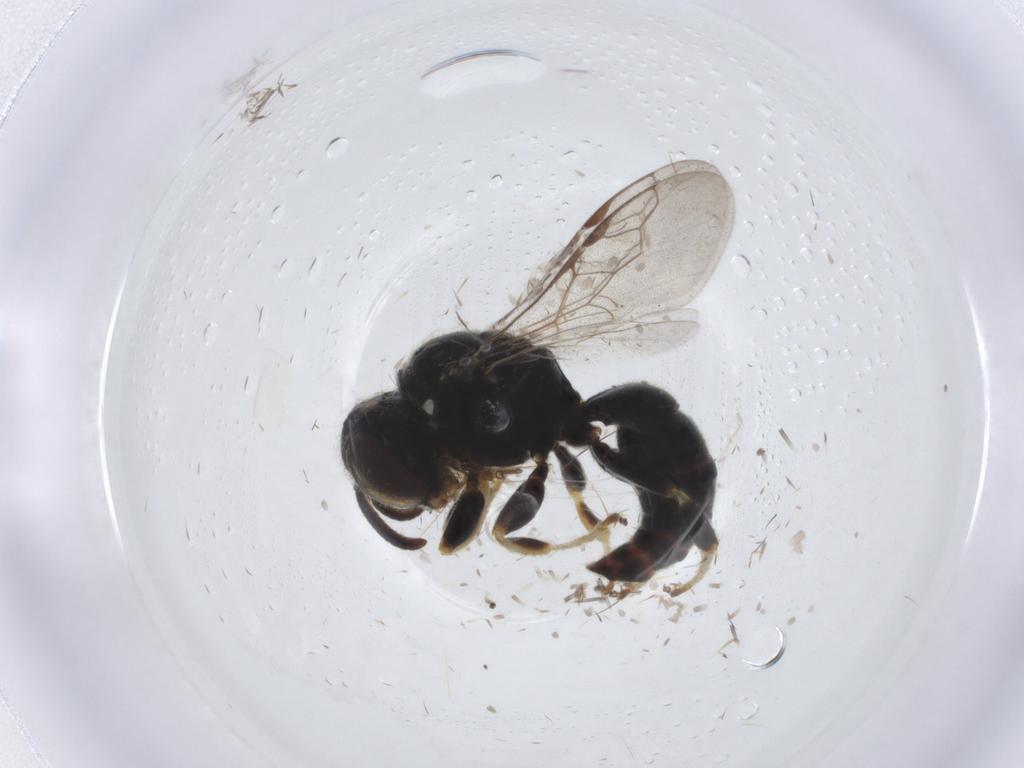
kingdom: Animalia
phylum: Arthropoda
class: Insecta
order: Hymenoptera
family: Crabronidae
